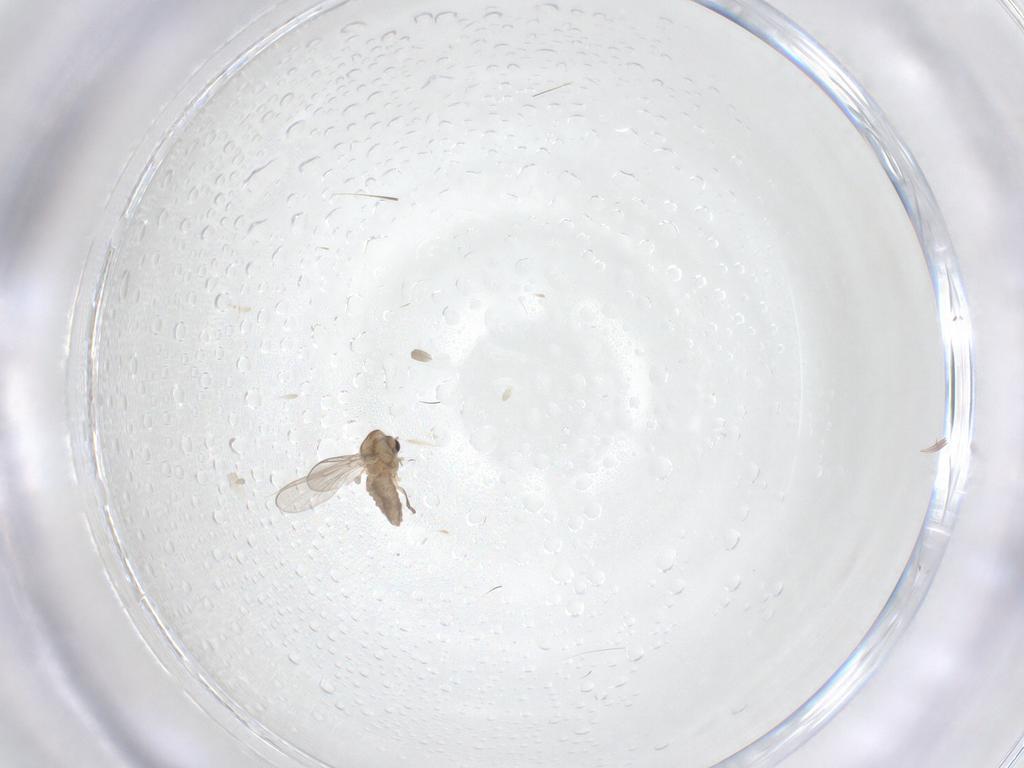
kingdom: Animalia
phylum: Arthropoda
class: Insecta
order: Diptera
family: Chironomidae
